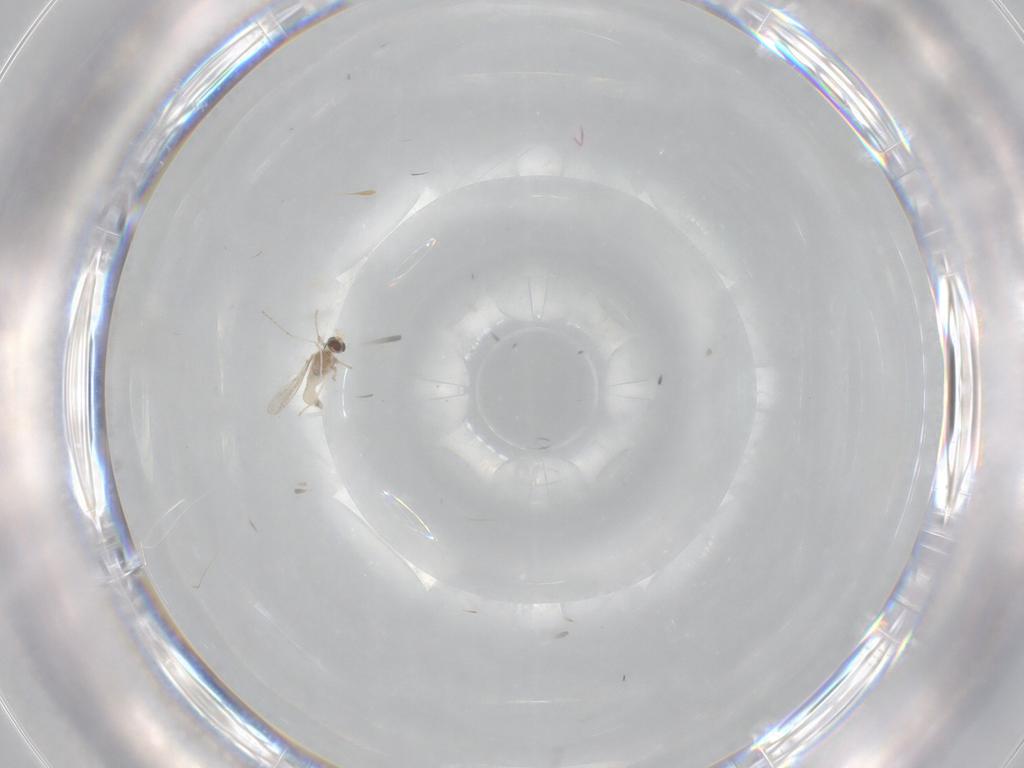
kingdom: Animalia
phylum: Arthropoda
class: Insecta
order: Diptera
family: Cecidomyiidae
